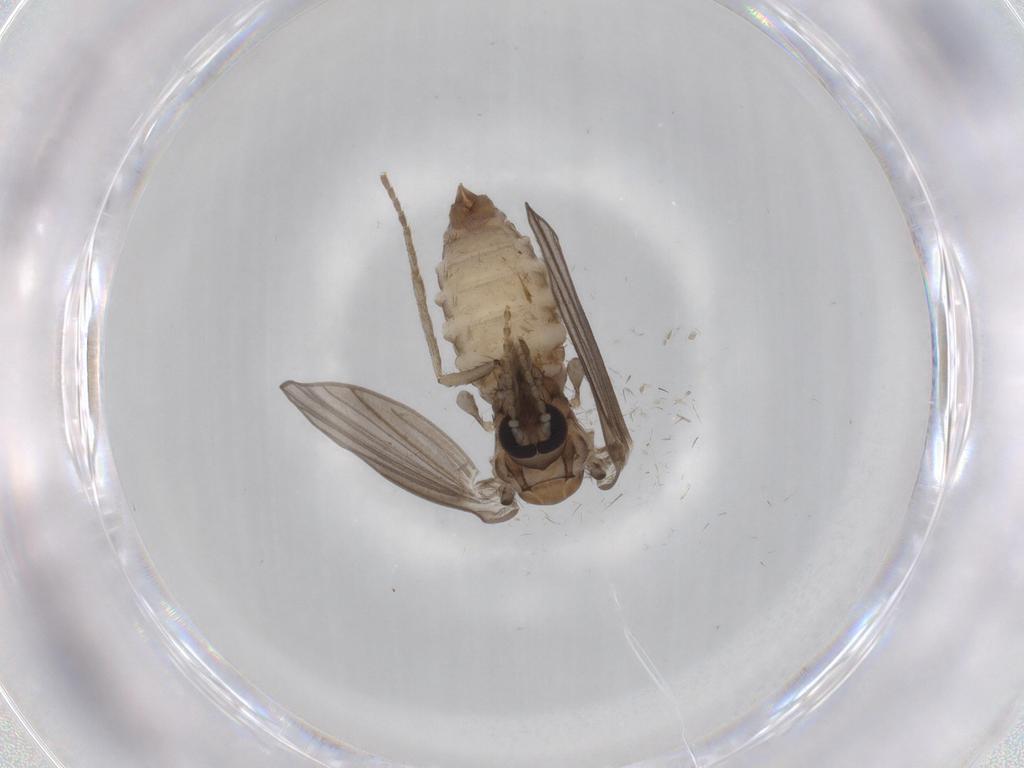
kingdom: Animalia
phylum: Arthropoda
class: Insecta
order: Diptera
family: Psychodidae
